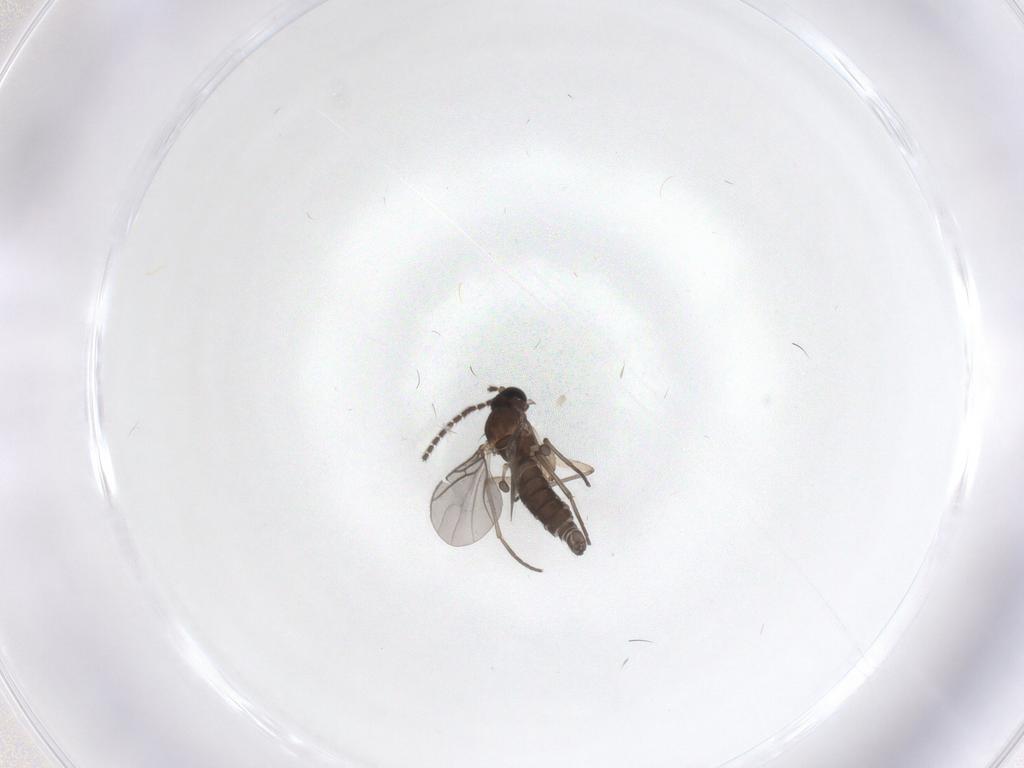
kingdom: Animalia
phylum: Arthropoda
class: Insecta
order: Diptera
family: Sciaridae
